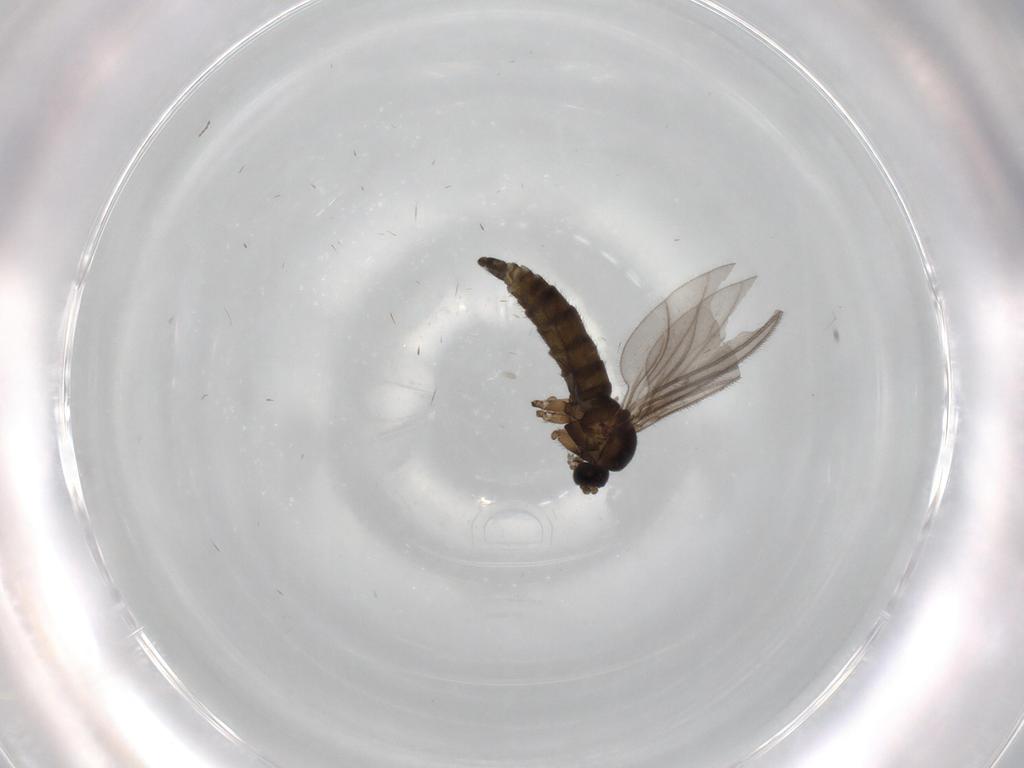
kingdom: Animalia
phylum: Arthropoda
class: Insecta
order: Diptera
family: Sciaridae
